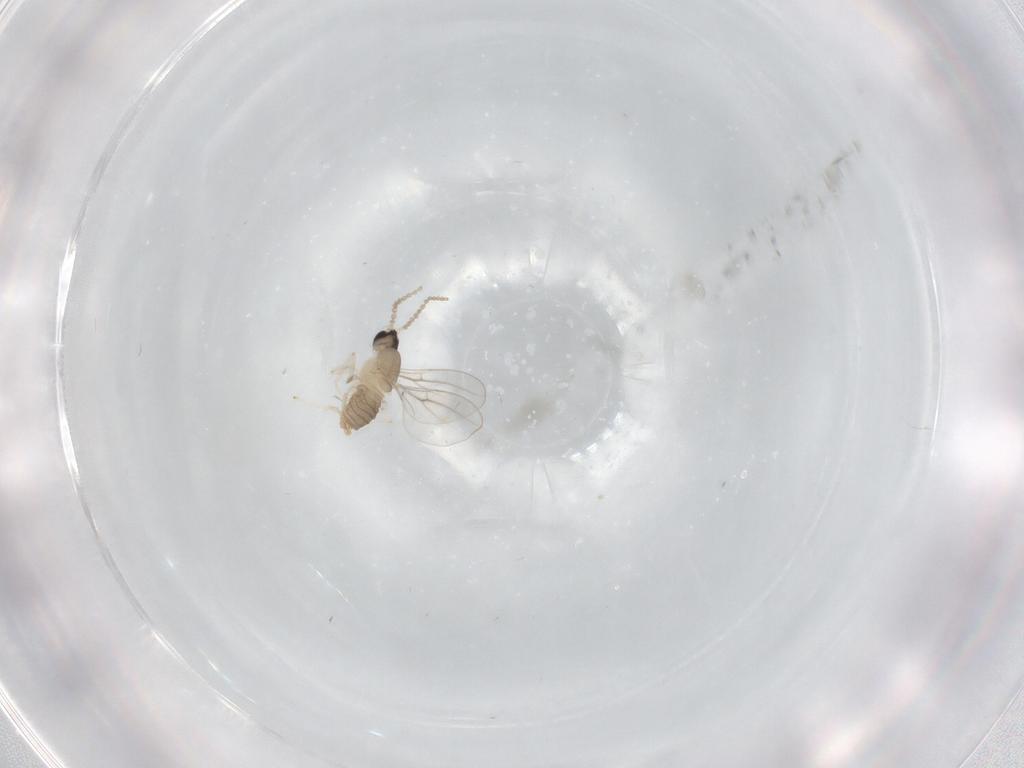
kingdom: Animalia
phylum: Arthropoda
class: Insecta
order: Diptera
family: Cecidomyiidae
